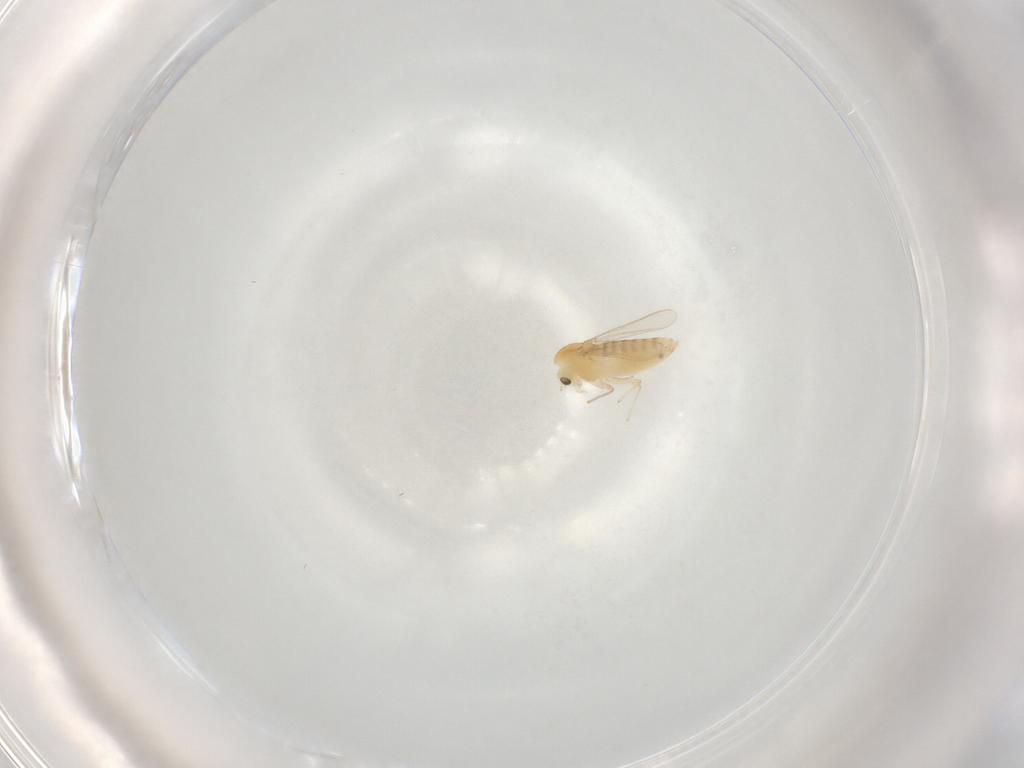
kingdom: Animalia
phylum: Arthropoda
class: Insecta
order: Diptera
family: Chironomidae
